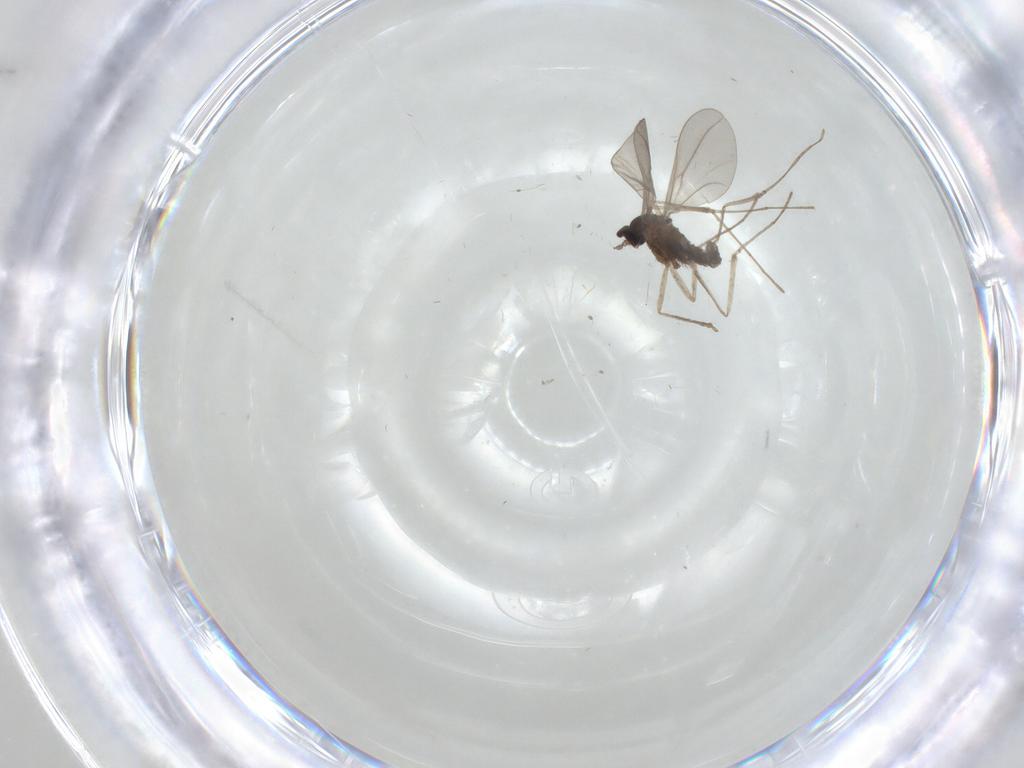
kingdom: Animalia
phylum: Arthropoda
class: Insecta
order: Diptera
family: Cecidomyiidae
